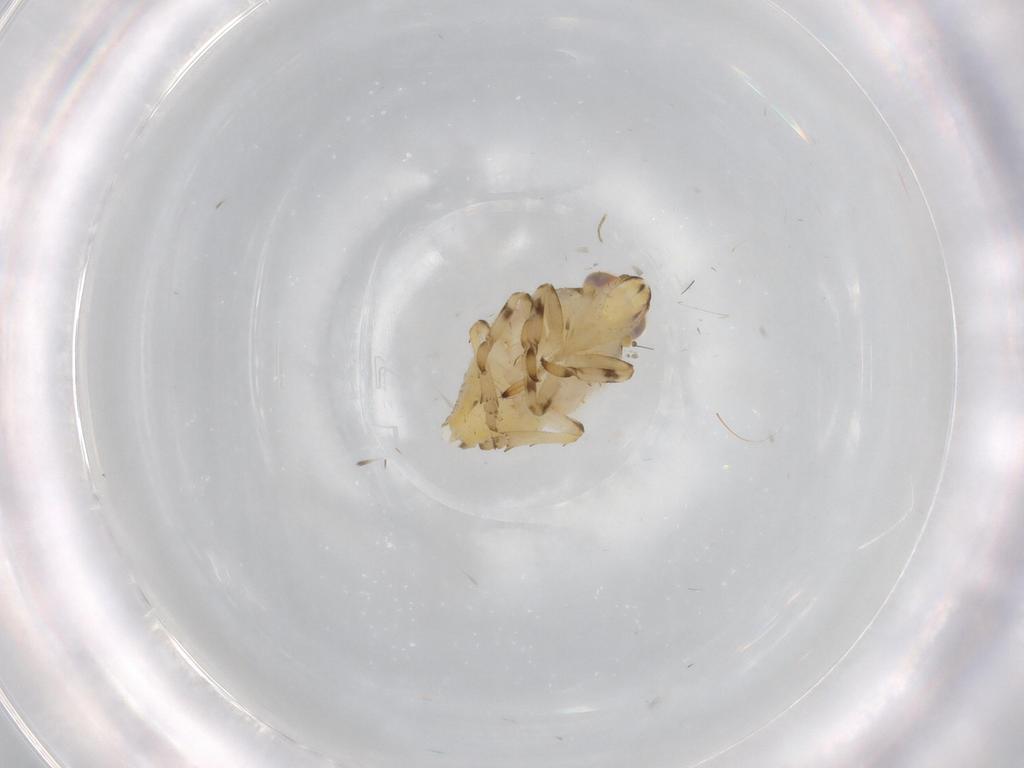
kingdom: Animalia
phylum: Arthropoda
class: Insecta
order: Hemiptera
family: Issidae
